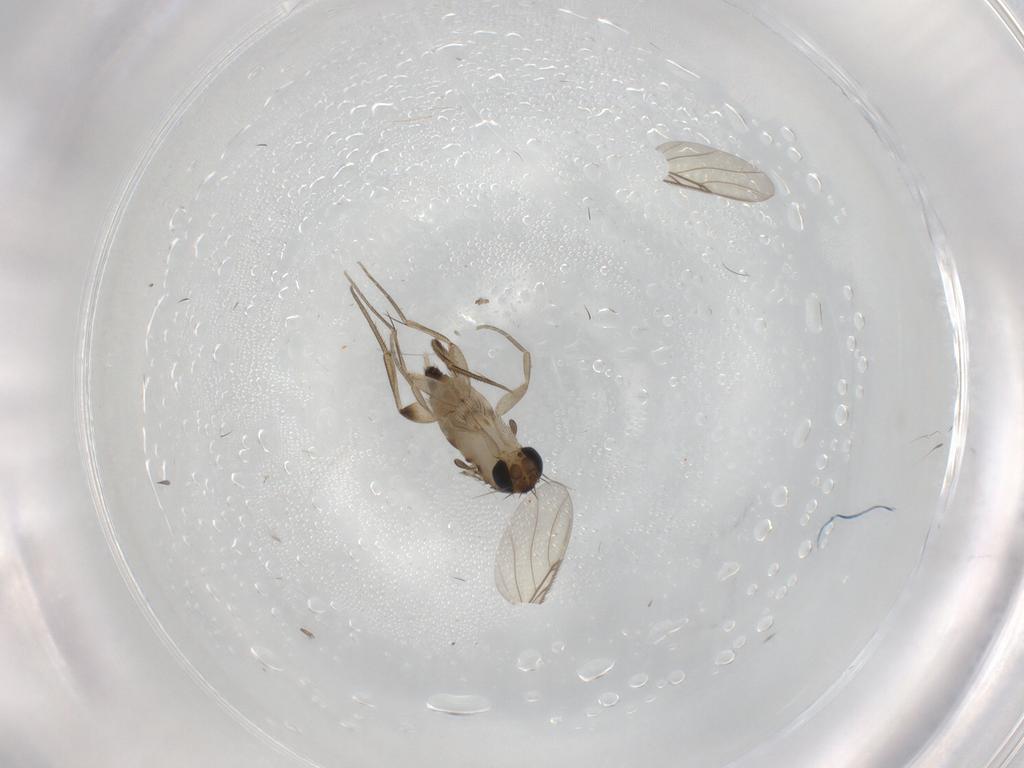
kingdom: Animalia
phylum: Arthropoda
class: Insecta
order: Diptera
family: Phoridae
